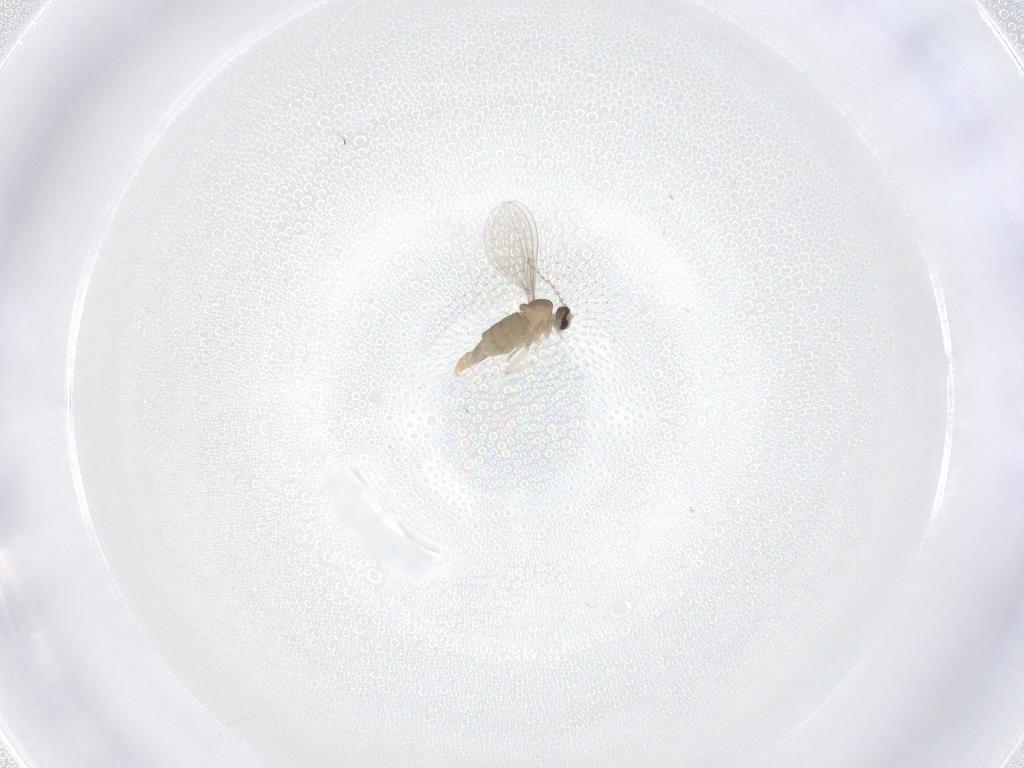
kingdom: Animalia
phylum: Arthropoda
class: Insecta
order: Diptera
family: Cecidomyiidae
